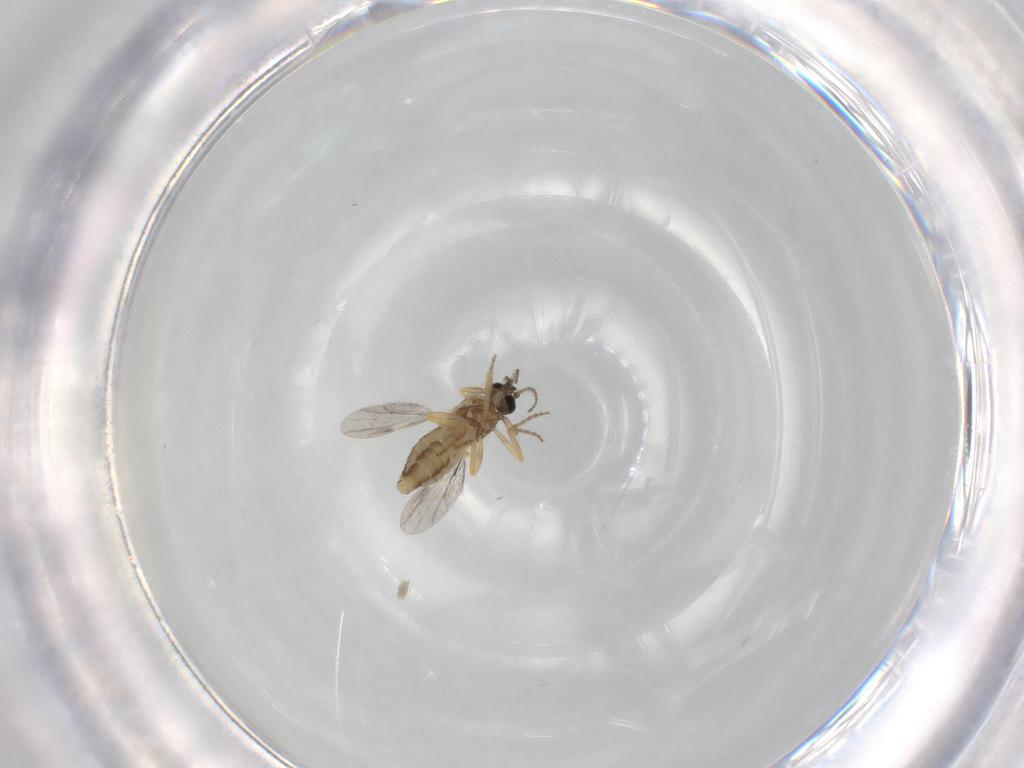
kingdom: Animalia
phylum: Arthropoda
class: Insecta
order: Diptera
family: Ceratopogonidae
